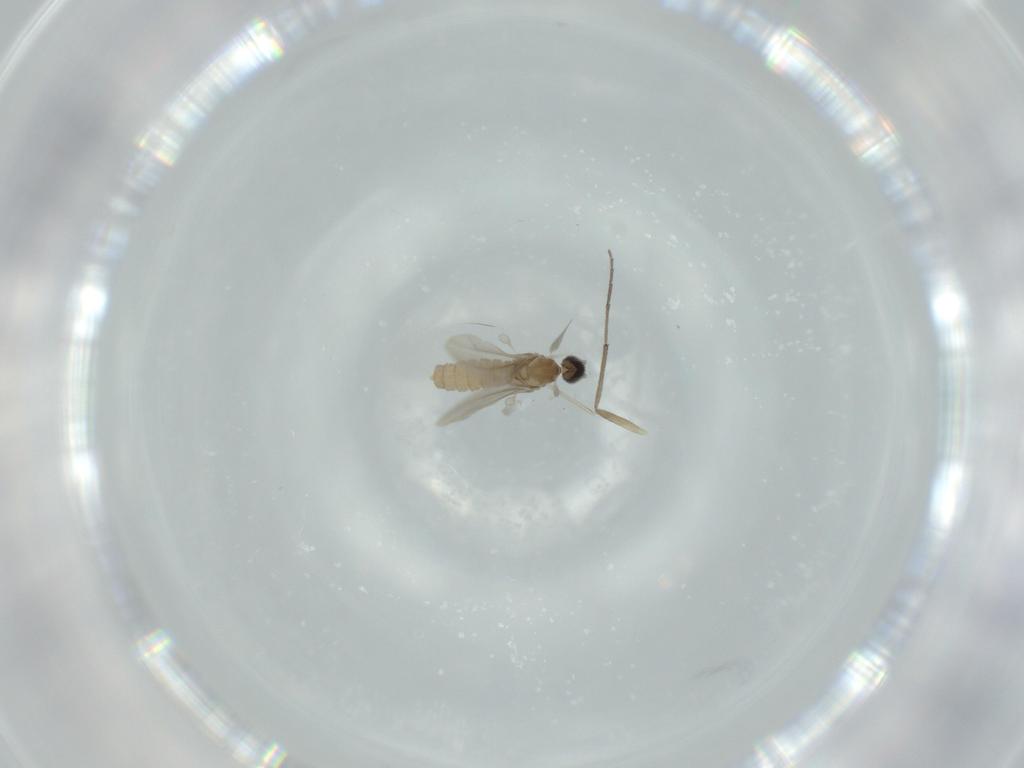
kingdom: Animalia
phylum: Arthropoda
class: Insecta
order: Diptera
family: Cecidomyiidae
